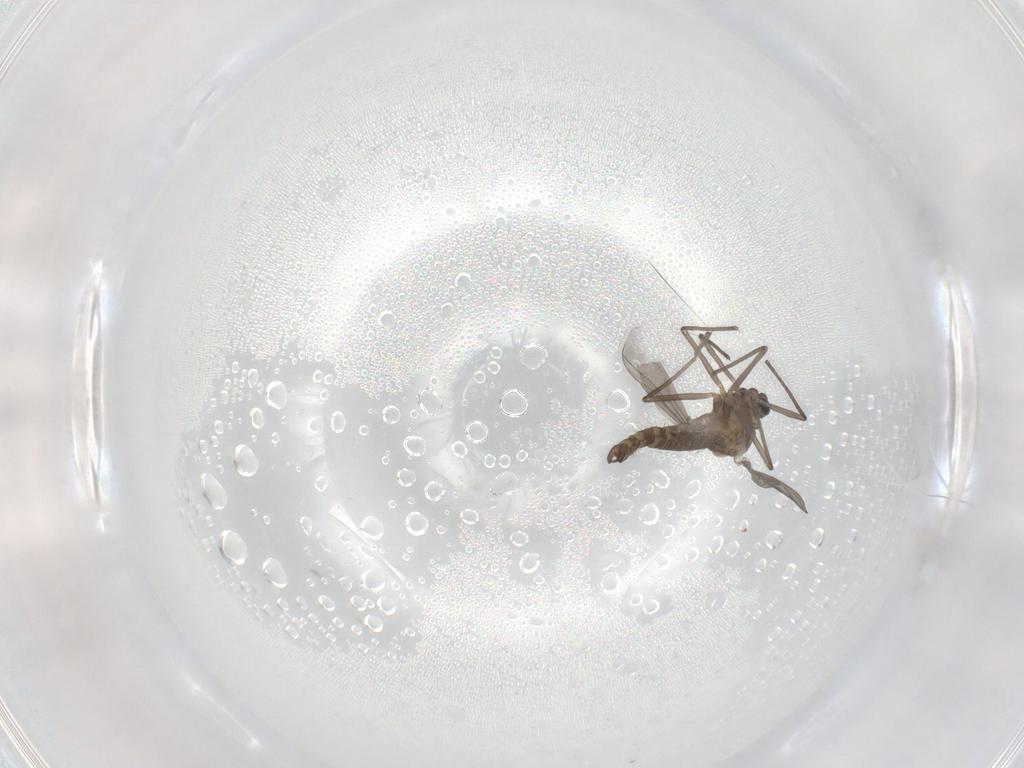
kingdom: Animalia
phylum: Arthropoda
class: Insecta
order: Diptera
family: Chironomidae
